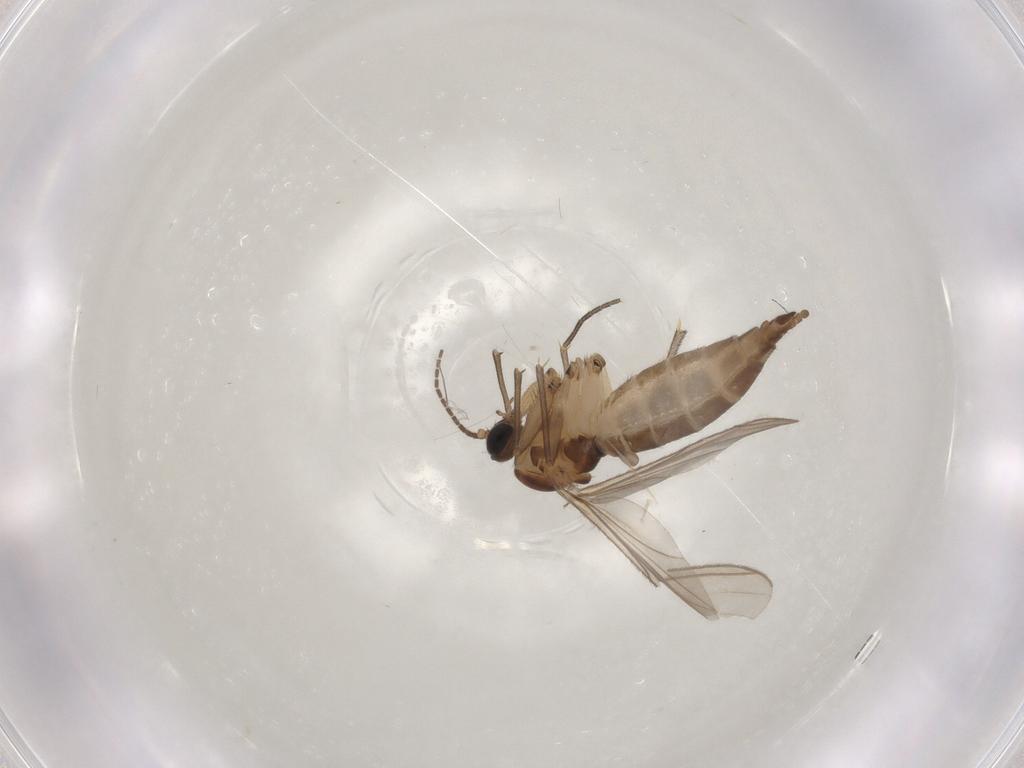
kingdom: Animalia
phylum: Arthropoda
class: Insecta
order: Diptera
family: Sciaridae
